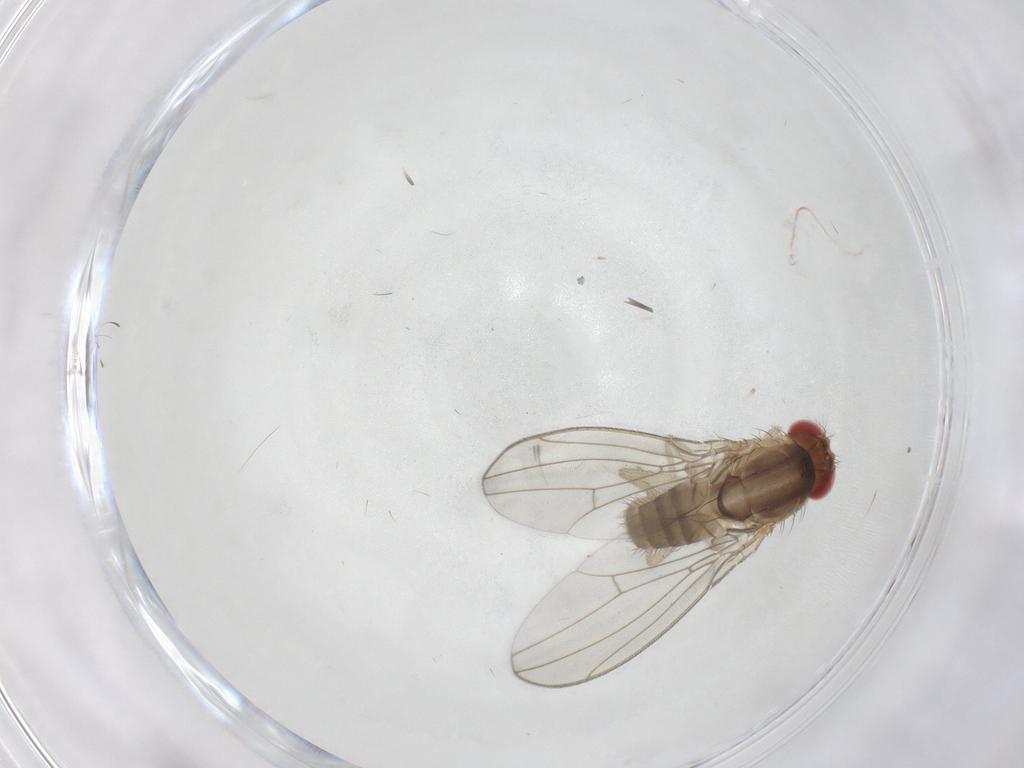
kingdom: Animalia
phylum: Arthropoda
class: Insecta
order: Diptera
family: Drosophilidae
